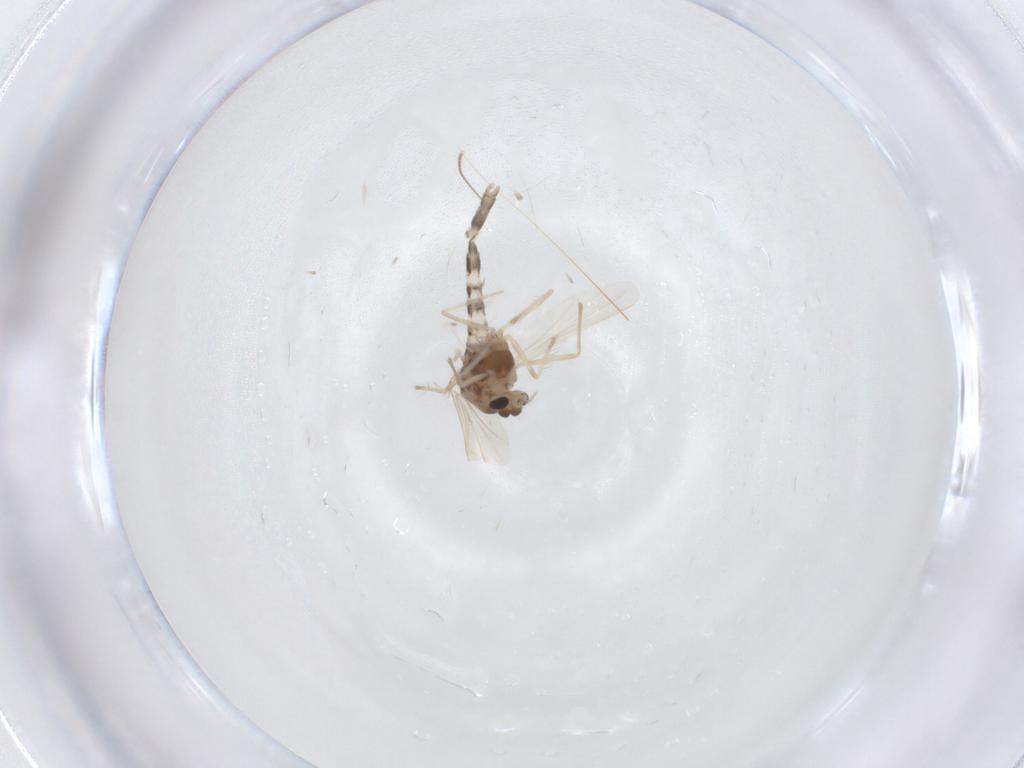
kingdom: Animalia
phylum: Arthropoda
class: Insecta
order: Diptera
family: Chironomidae
